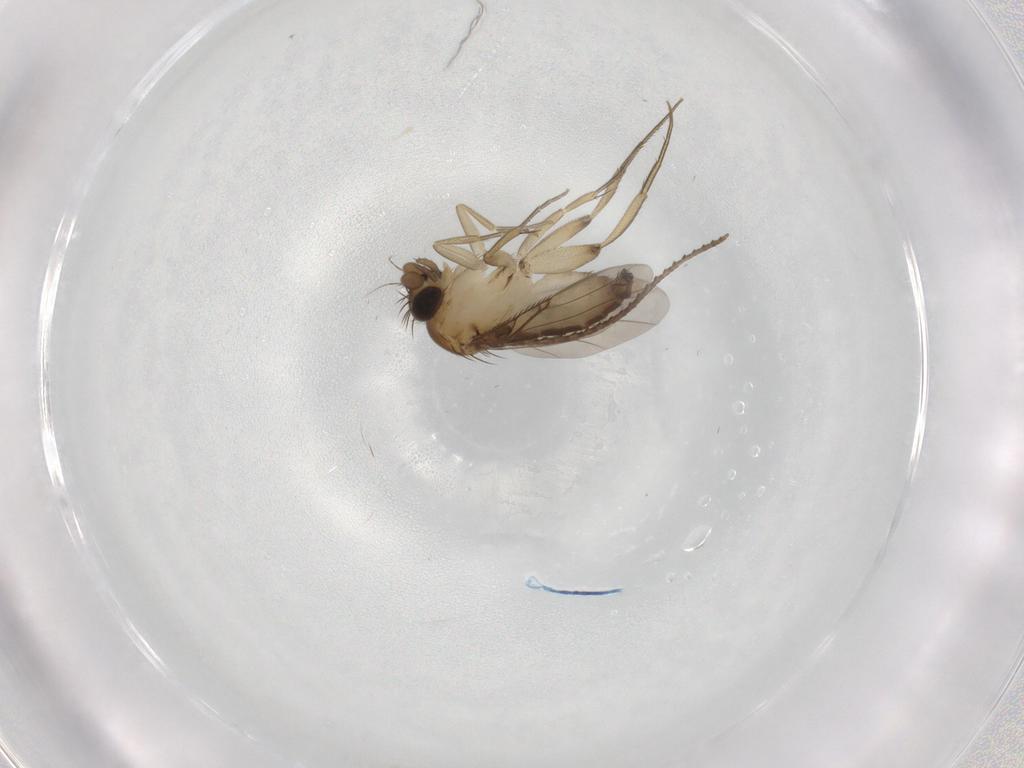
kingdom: Animalia
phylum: Arthropoda
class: Insecta
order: Diptera
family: Phoridae
